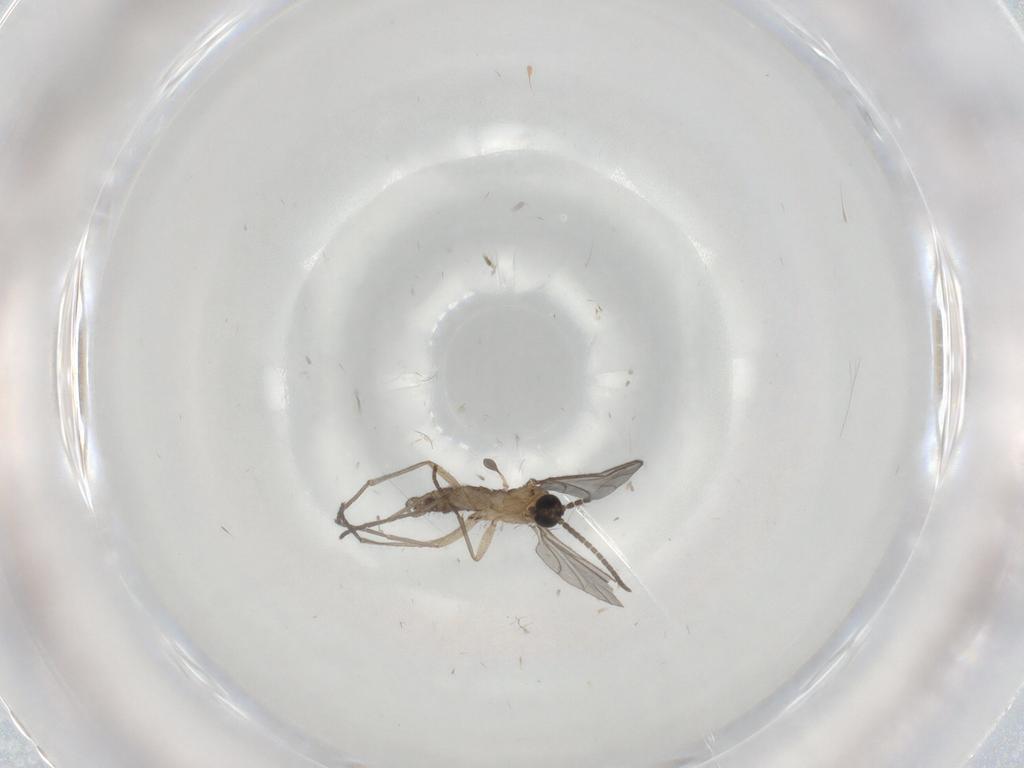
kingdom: Animalia
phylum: Arthropoda
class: Insecta
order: Diptera
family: Sciaridae
